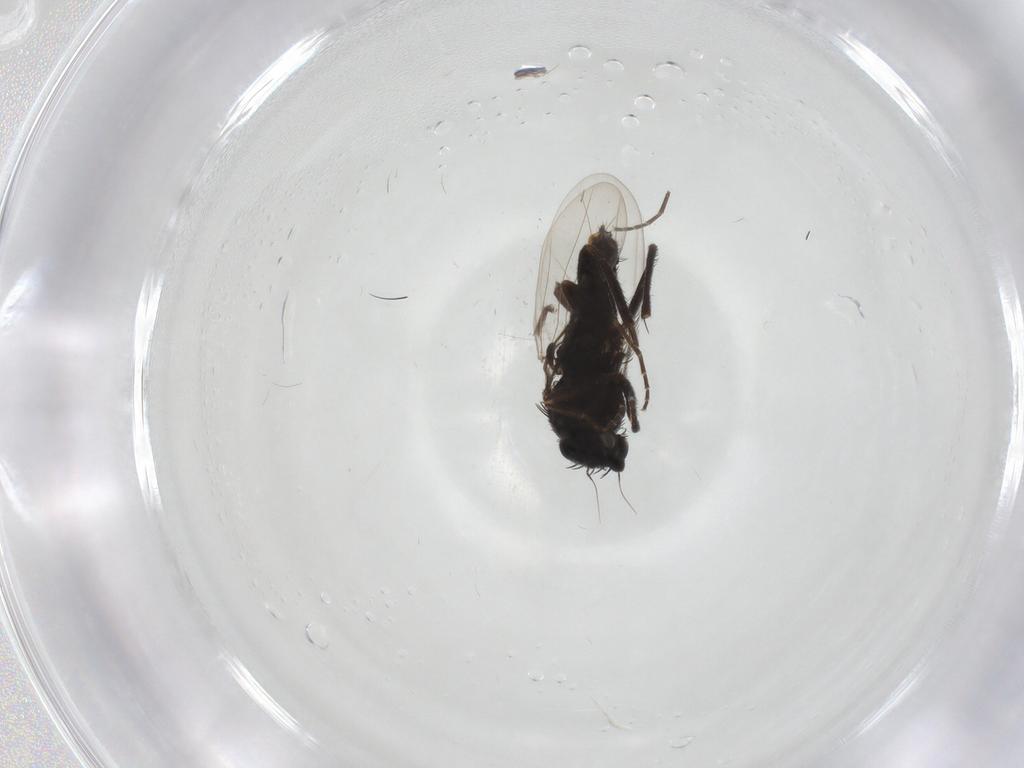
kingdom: Animalia
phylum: Arthropoda
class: Insecta
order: Diptera
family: Phoridae
